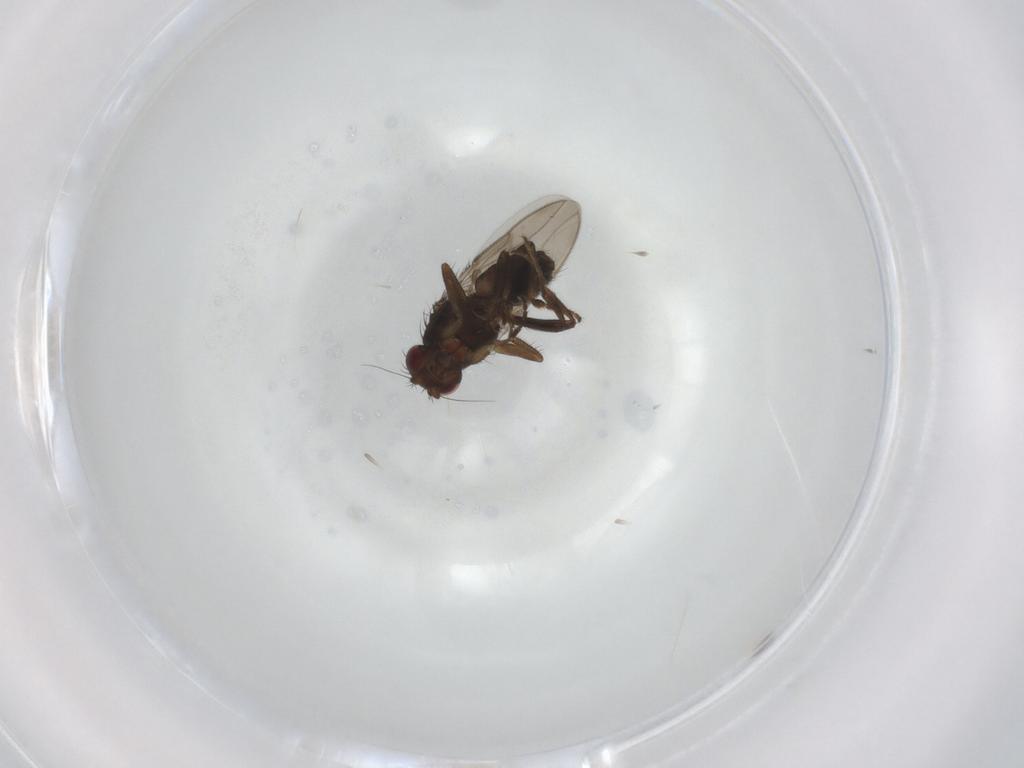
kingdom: Animalia
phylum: Arthropoda
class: Insecta
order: Diptera
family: Sphaeroceridae
